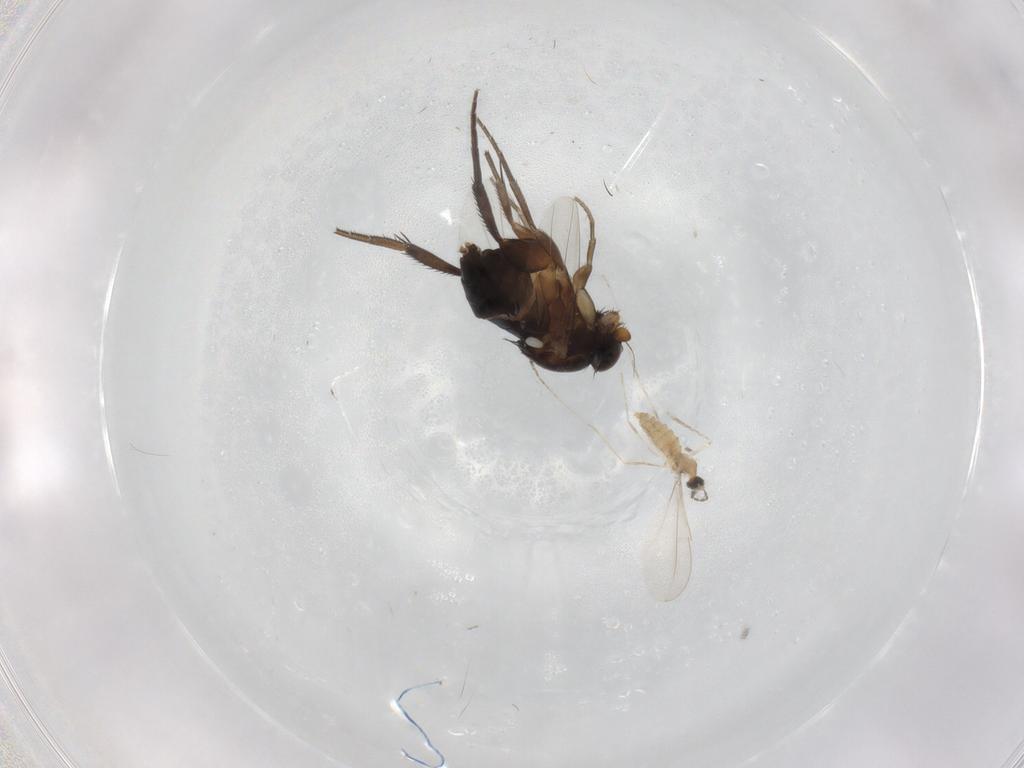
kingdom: Animalia
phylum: Arthropoda
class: Insecta
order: Diptera
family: Phoridae
